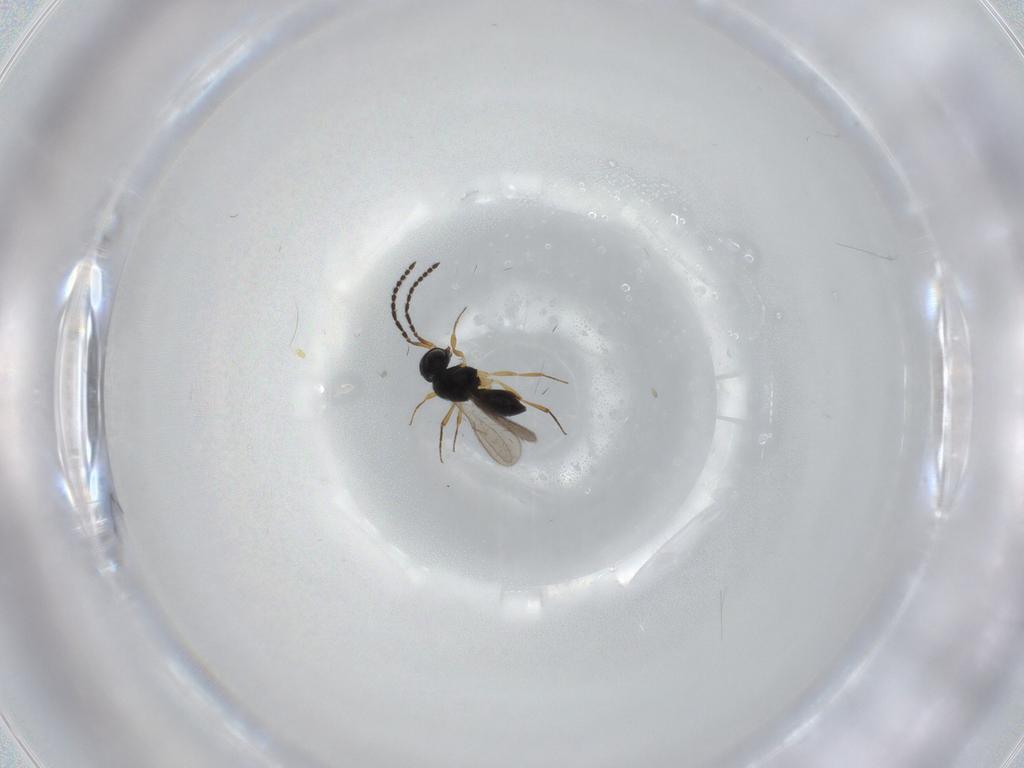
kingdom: Animalia
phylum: Arthropoda
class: Insecta
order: Hymenoptera
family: Scelionidae
